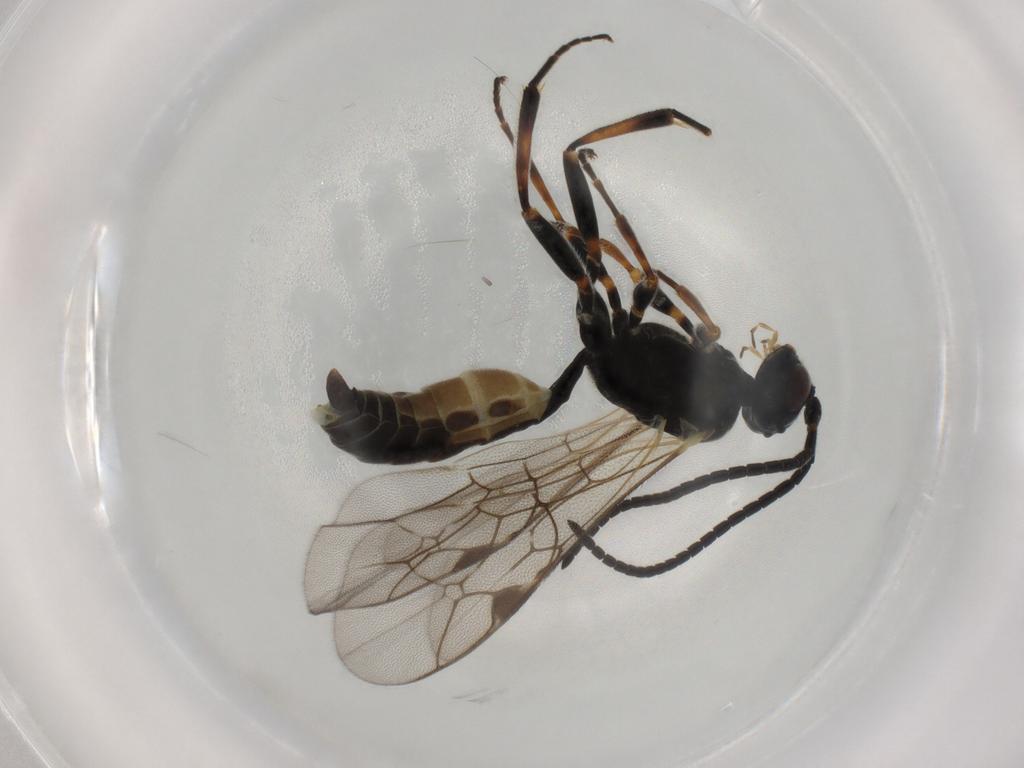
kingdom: Animalia
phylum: Arthropoda
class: Insecta
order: Hymenoptera
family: Ichneumonidae
